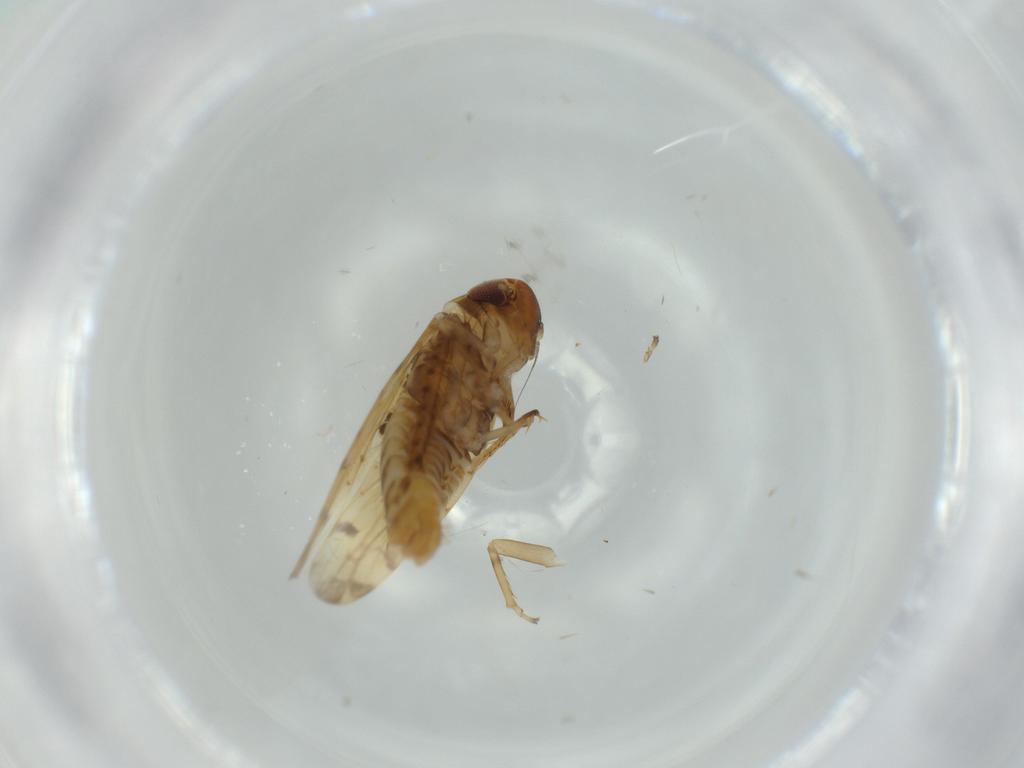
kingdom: Animalia
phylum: Arthropoda
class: Insecta
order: Hemiptera
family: Cicadellidae
